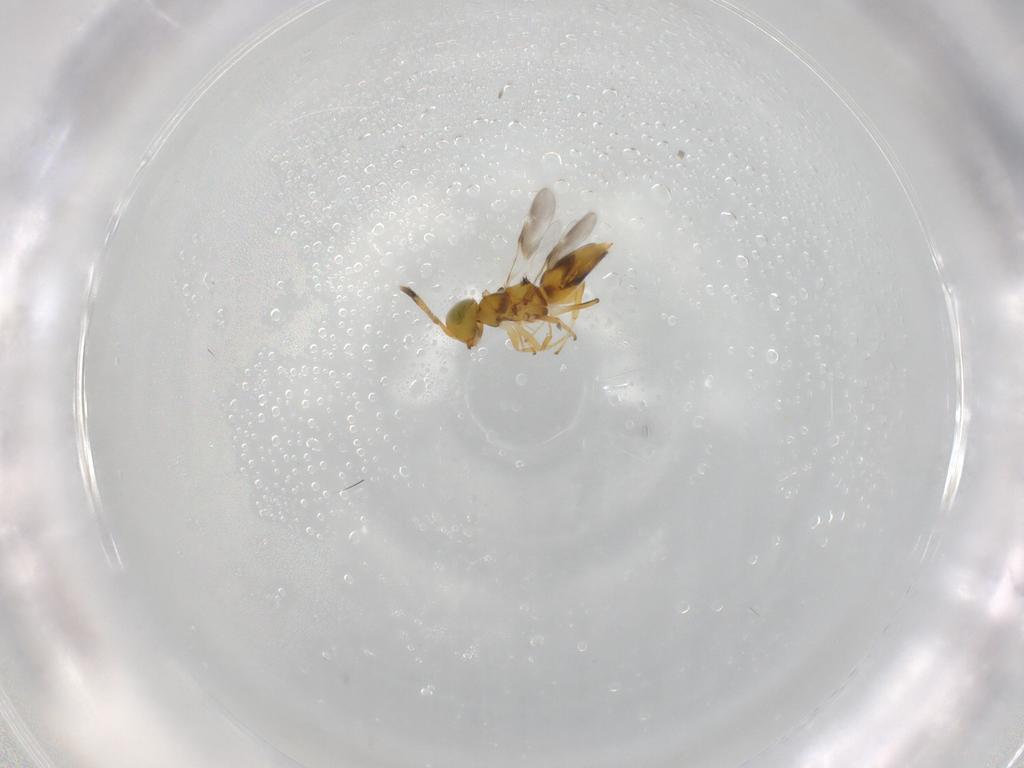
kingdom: Animalia
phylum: Arthropoda
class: Insecta
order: Hymenoptera
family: Encyrtidae
